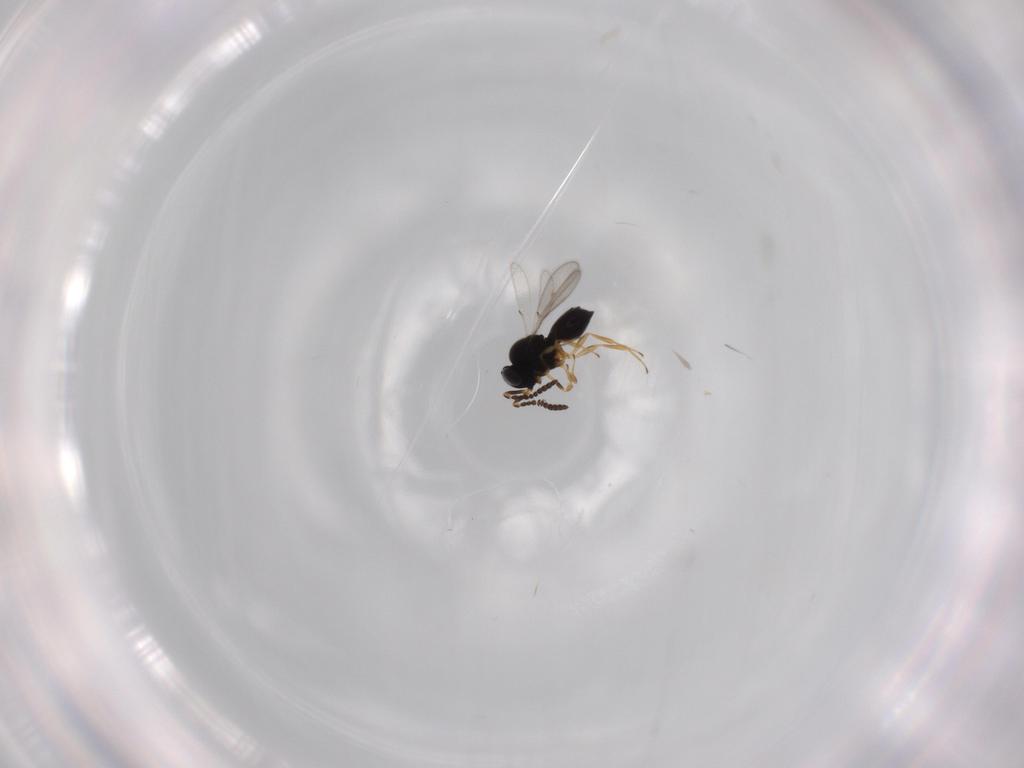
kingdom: Animalia
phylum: Arthropoda
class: Insecta
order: Hymenoptera
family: Scelionidae
